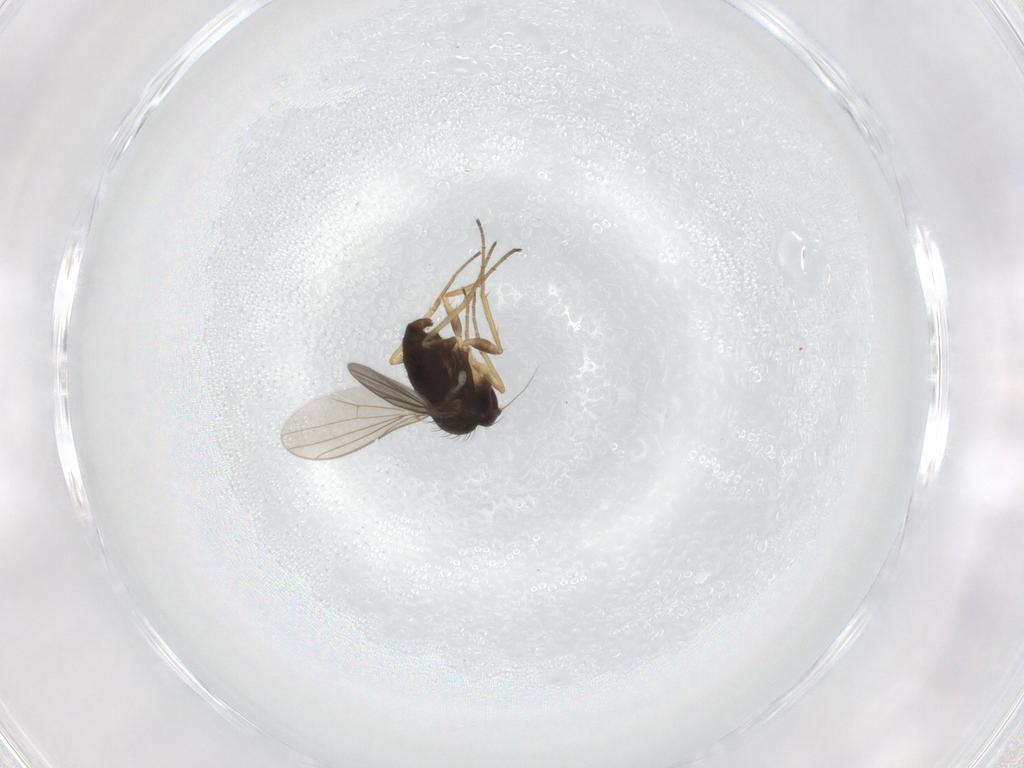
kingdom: Animalia
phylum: Arthropoda
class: Insecta
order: Diptera
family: Dolichopodidae
